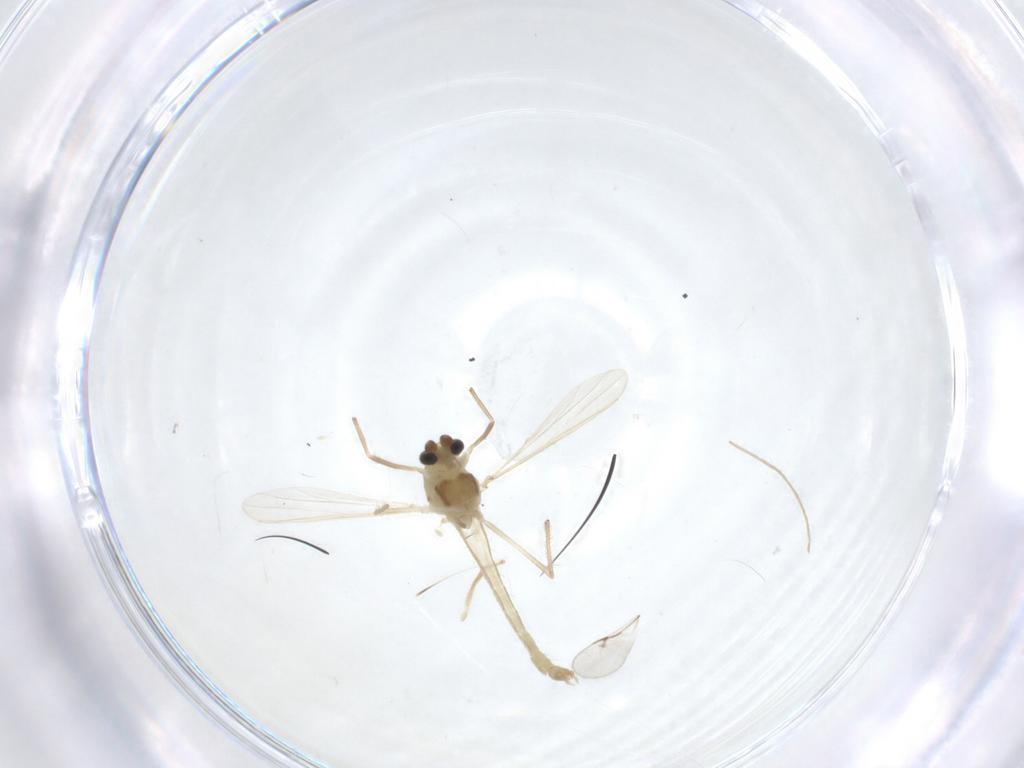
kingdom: Animalia
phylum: Arthropoda
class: Insecta
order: Diptera
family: Chironomidae
